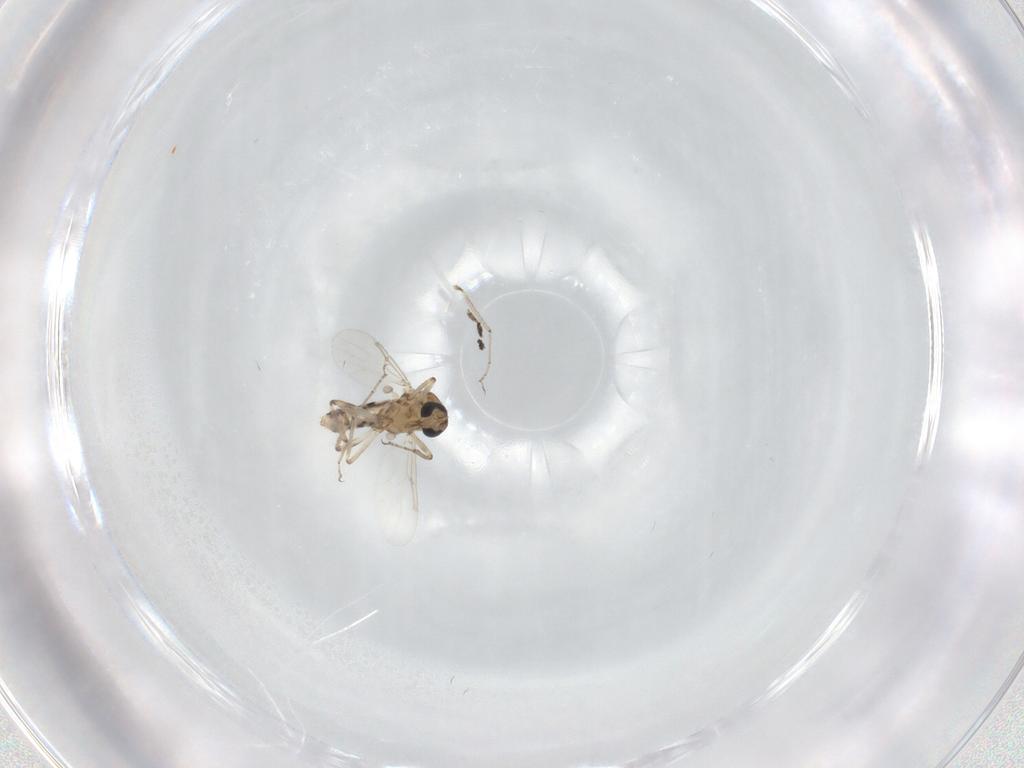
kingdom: Animalia
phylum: Arthropoda
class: Insecta
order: Diptera
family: Ceratopogonidae
